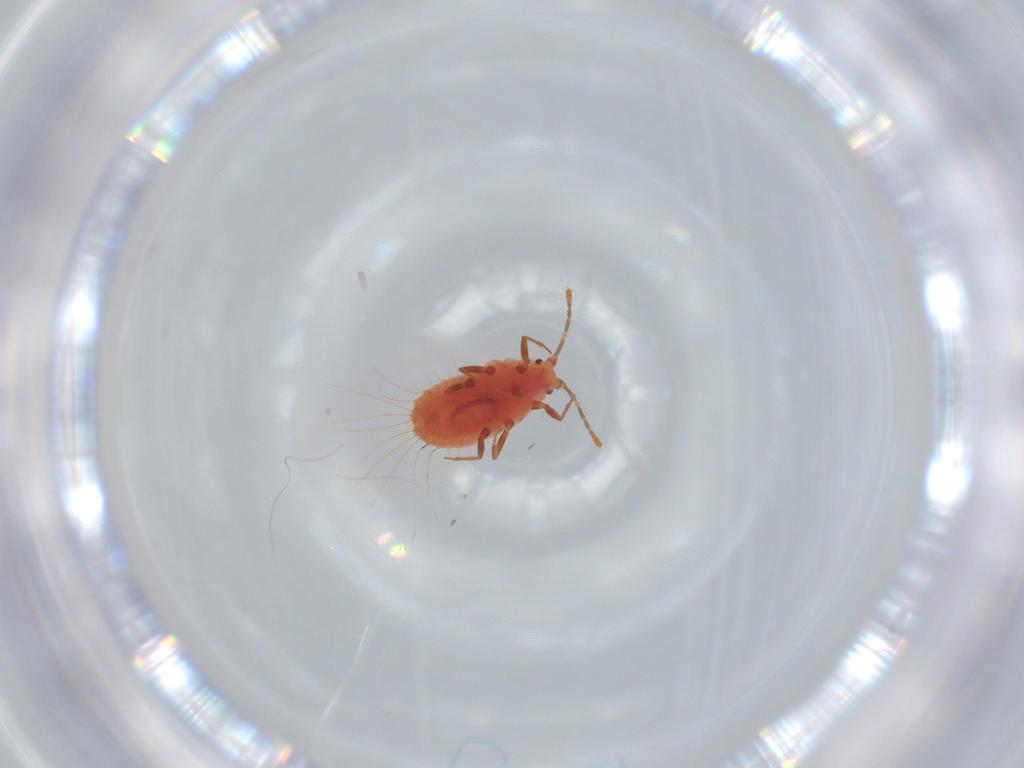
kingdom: Animalia
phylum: Arthropoda
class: Insecta
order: Hemiptera
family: Coccoidea_incertae_sedis
